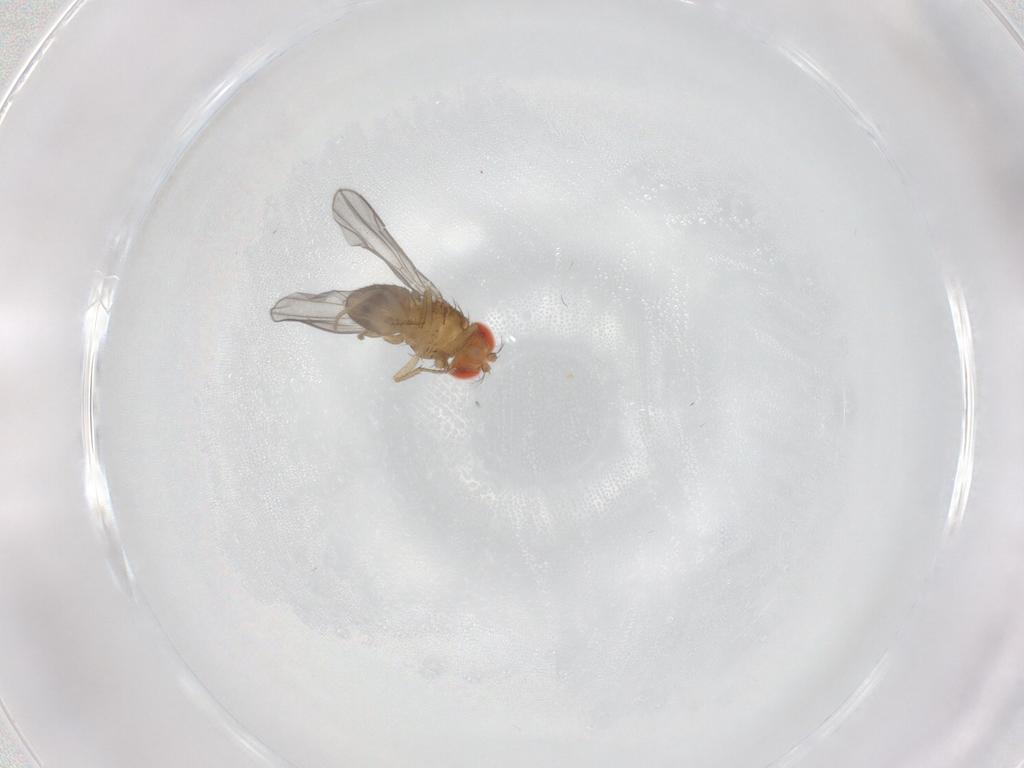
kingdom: Animalia
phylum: Arthropoda
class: Insecta
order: Diptera
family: Drosophilidae
